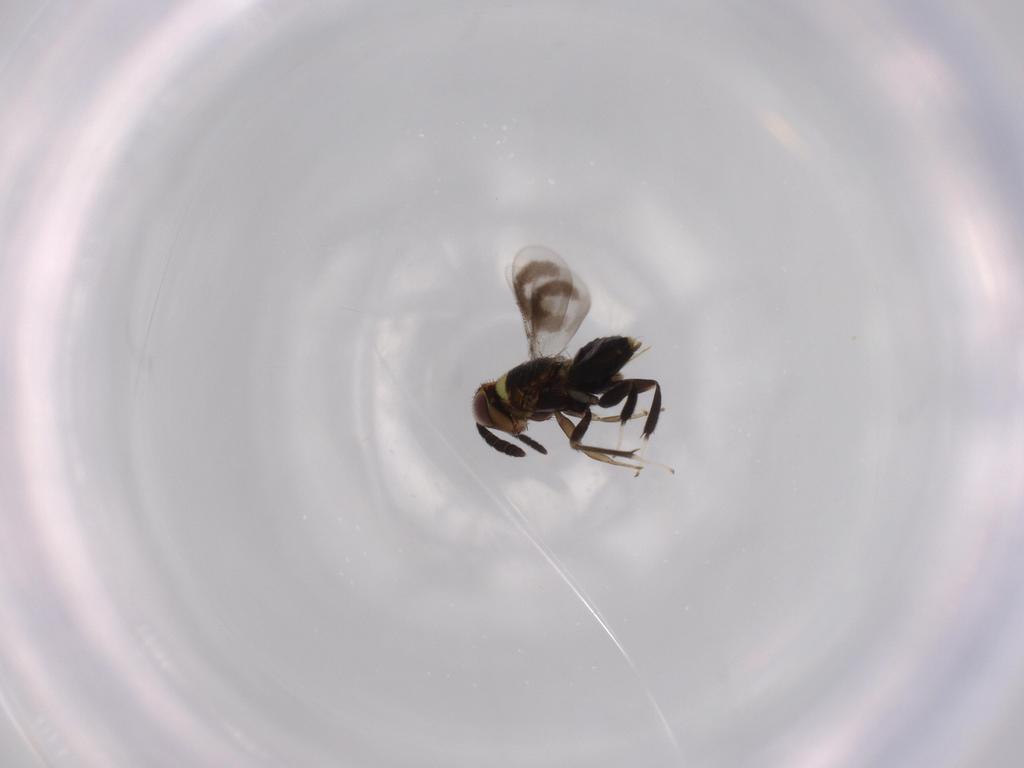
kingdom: Animalia
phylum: Arthropoda
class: Insecta
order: Hymenoptera
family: Aphelinidae
